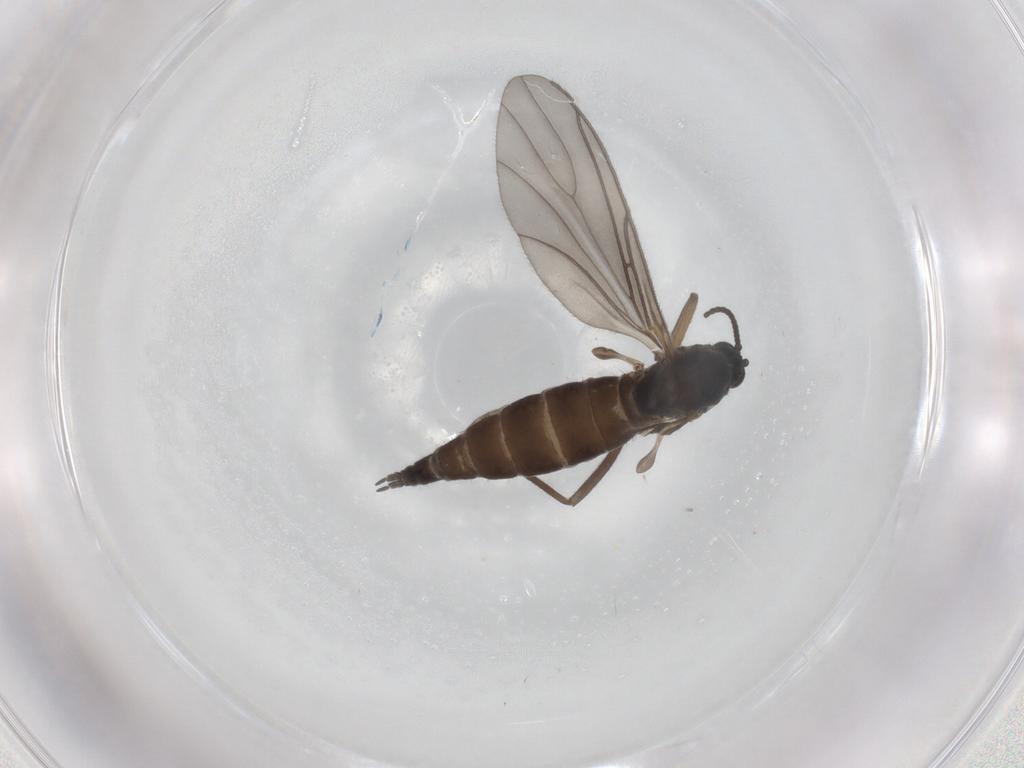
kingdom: Animalia
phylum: Arthropoda
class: Insecta
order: Diptera
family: Sciaridae
